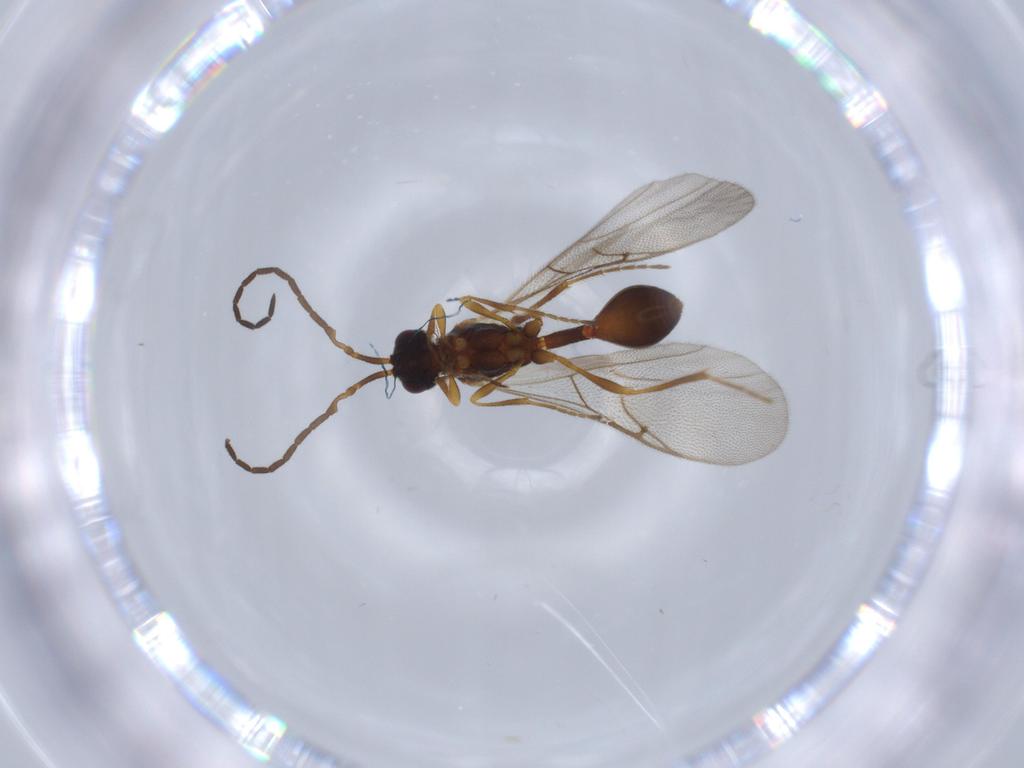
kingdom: Animalia
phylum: Arthropoda
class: Insecta
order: Hymenoptera
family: Diapriidae
